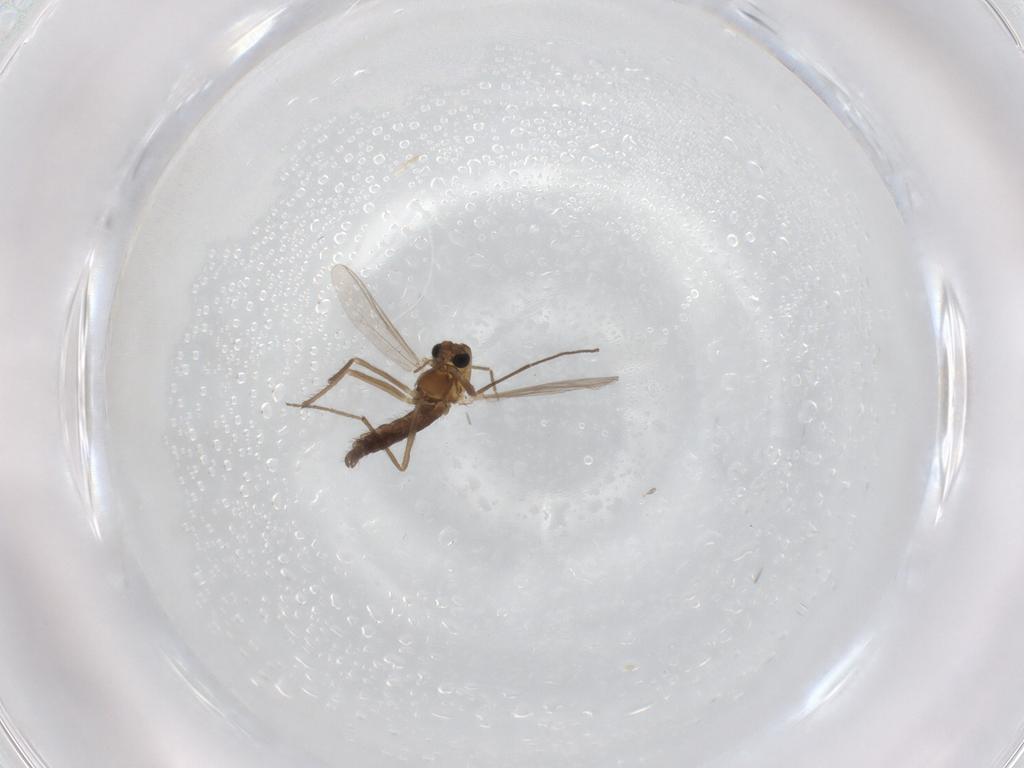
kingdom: Animalia
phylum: Arthropoda
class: Insecta
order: Diptera
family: Chironomidae
